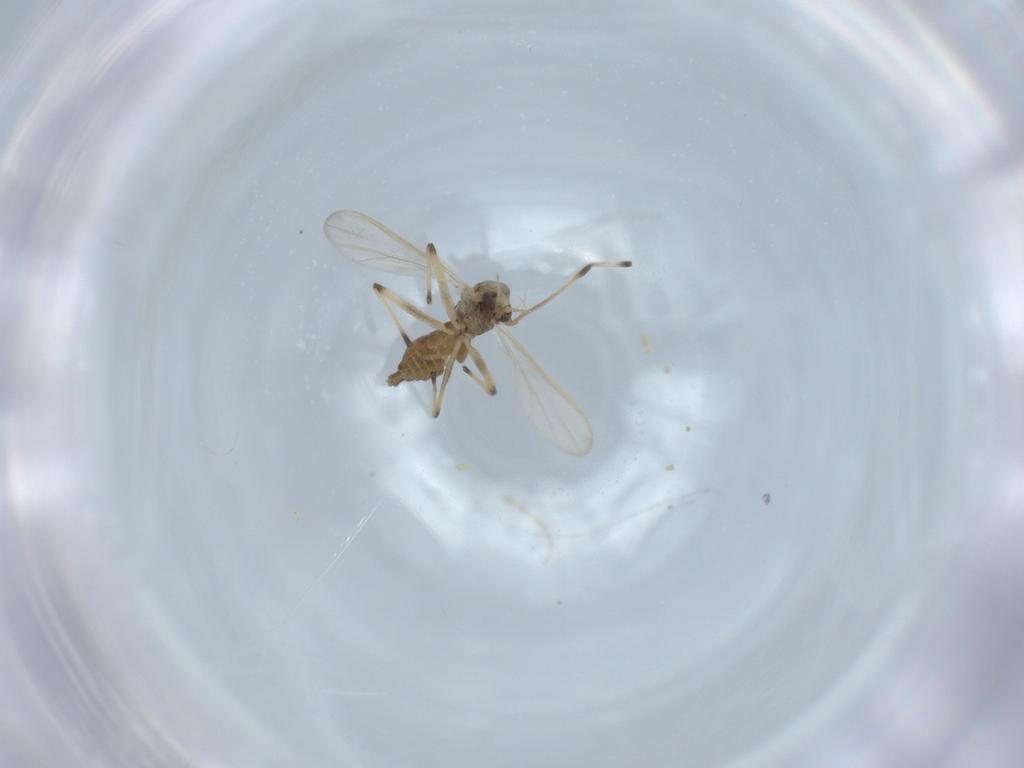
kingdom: Animalia
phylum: Arthropoda
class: Insecta
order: Diptera
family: Chironomidae
